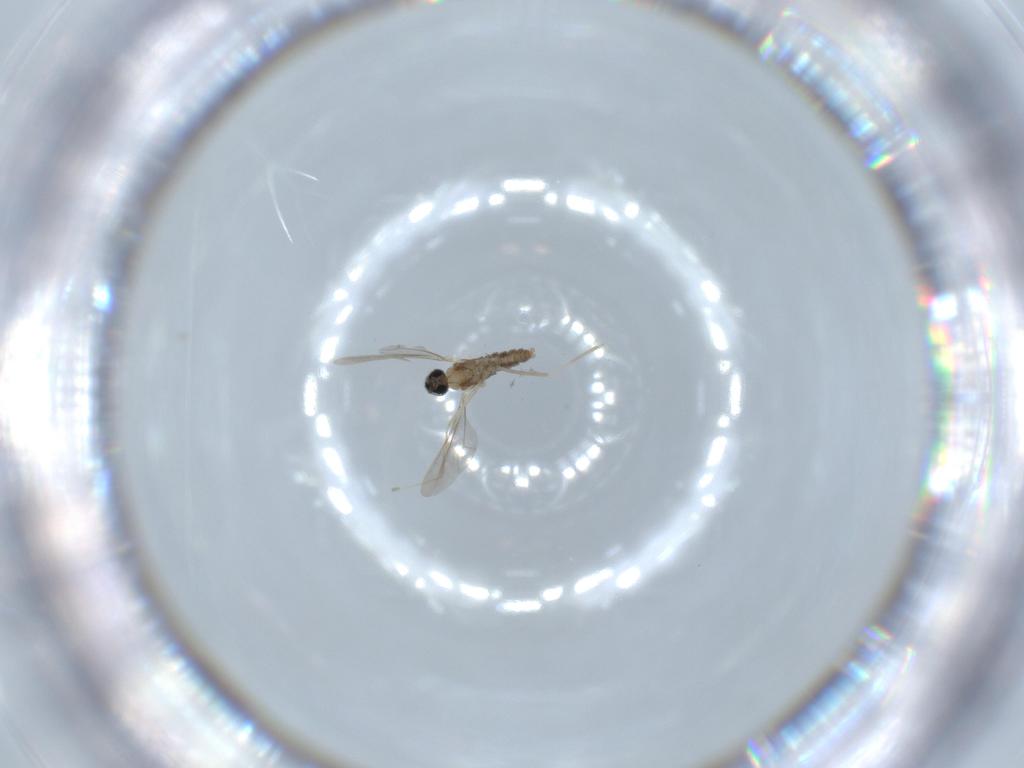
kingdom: Animalia
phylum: Arthropoda
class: Insecta
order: Diptera
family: Cecidomyiidae
